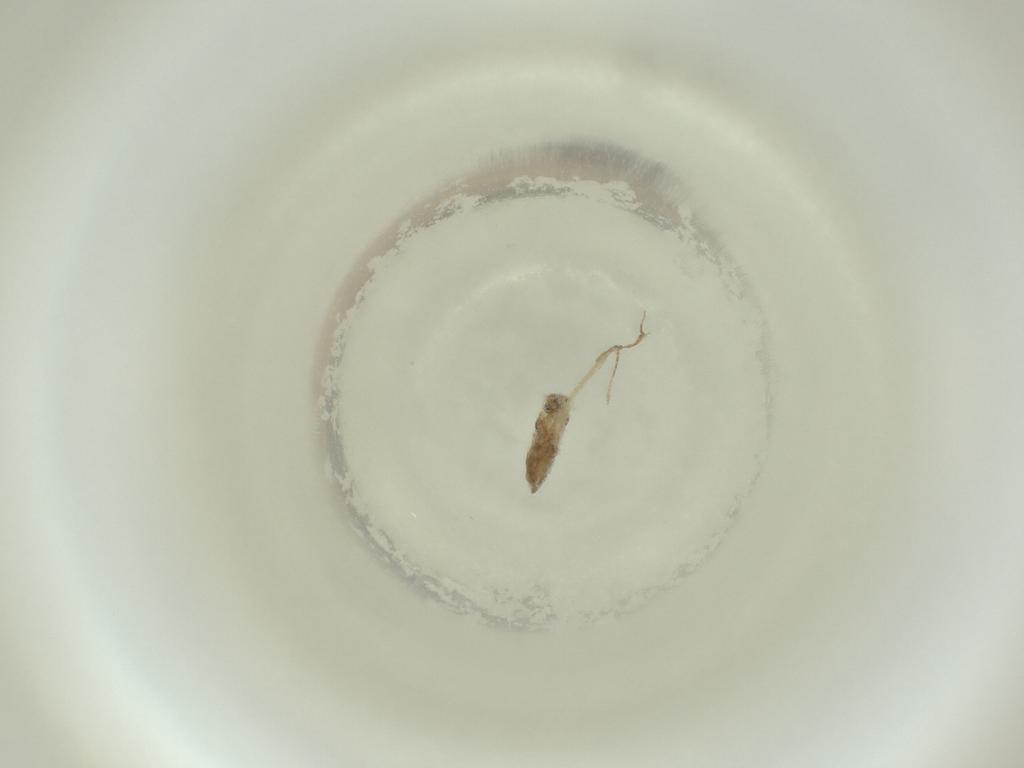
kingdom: Animalia
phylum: Arthropoda
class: Insecta
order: Diptera
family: Cecidomyiidae
